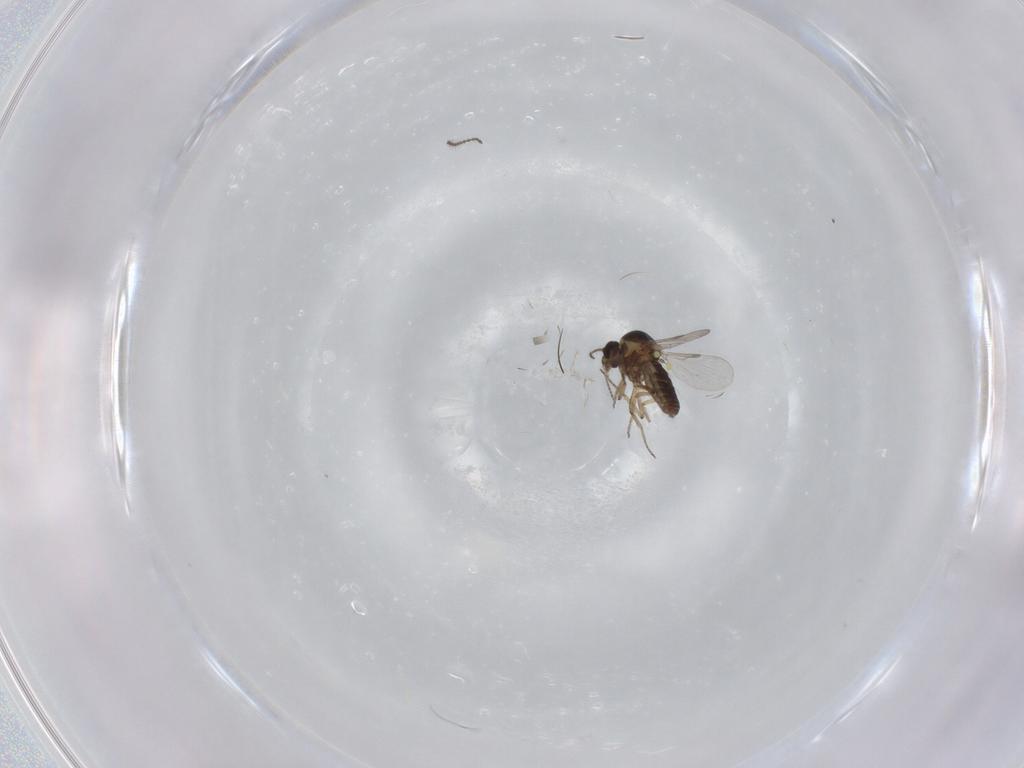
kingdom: Animalia
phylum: Arthropoda
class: Insecta
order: Diptera
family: Ceratopogonidae
